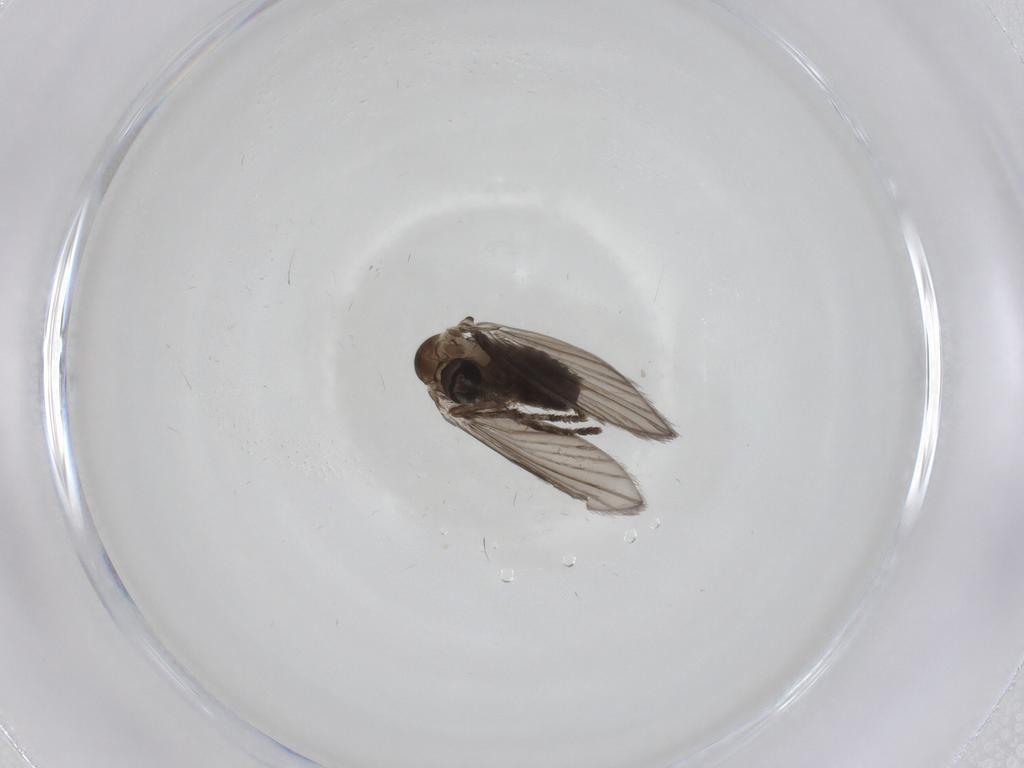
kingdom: Animalia
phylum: Arthropoda
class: Insecta
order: Diptera
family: Psychodidae
